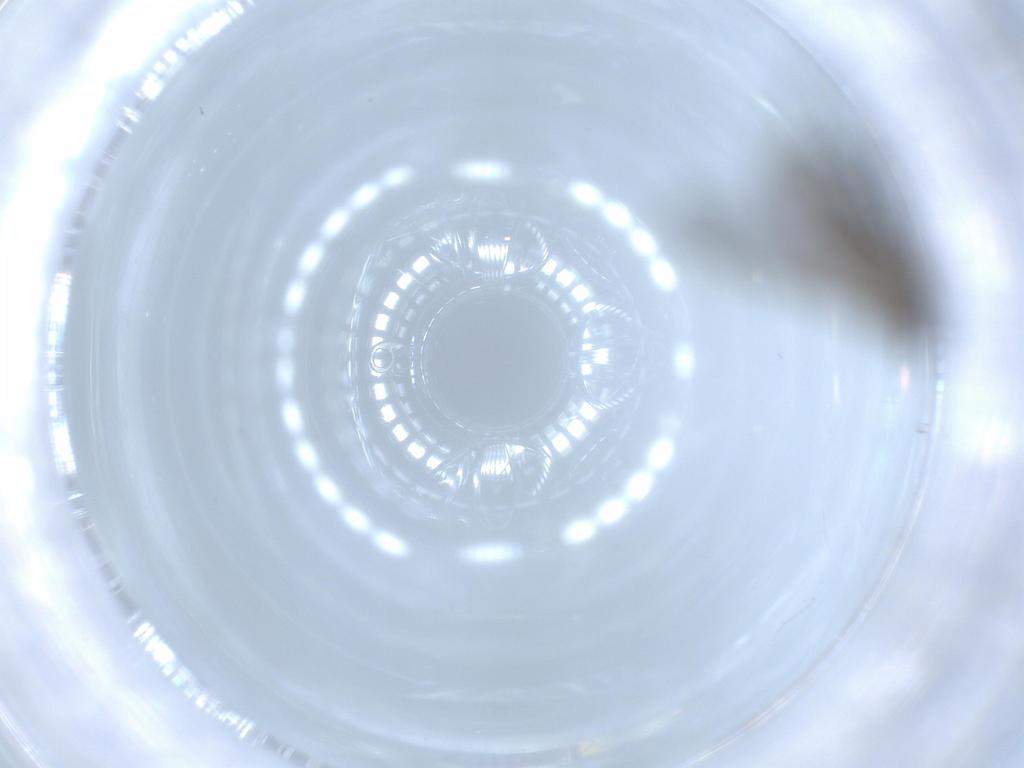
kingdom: Animalia
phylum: Arthropoda
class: Insecta
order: Diptera
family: Sciaridae
